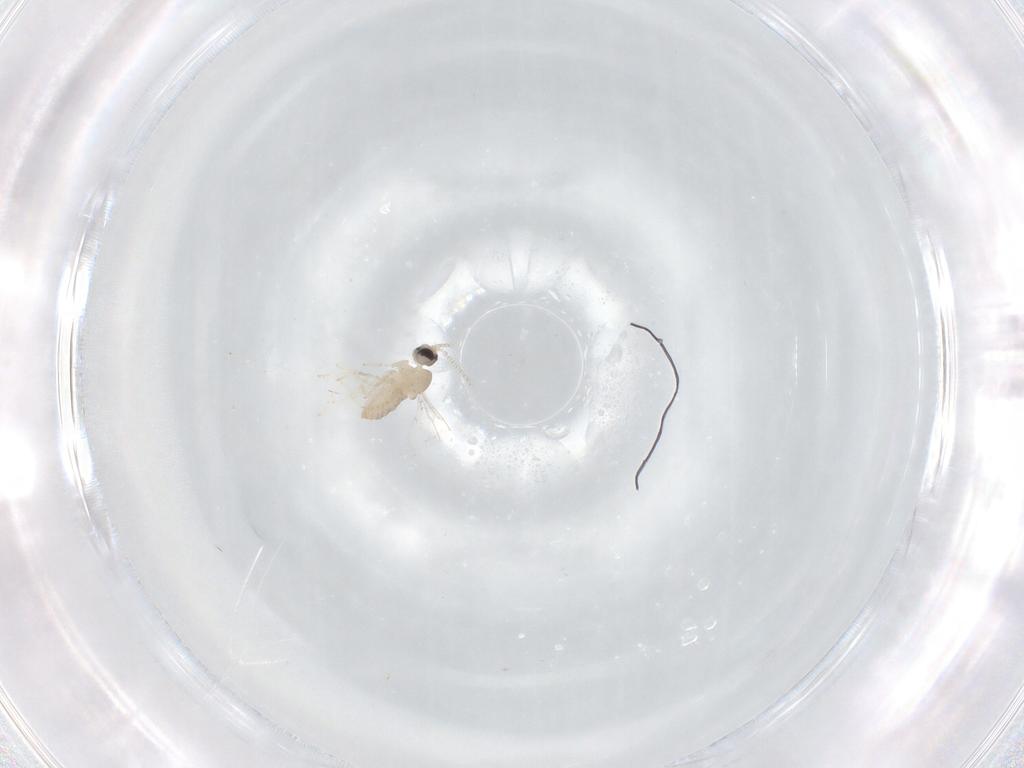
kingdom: Animalia
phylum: Arthropoda
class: Insecta
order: Diptera
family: Cecidomyiidae
